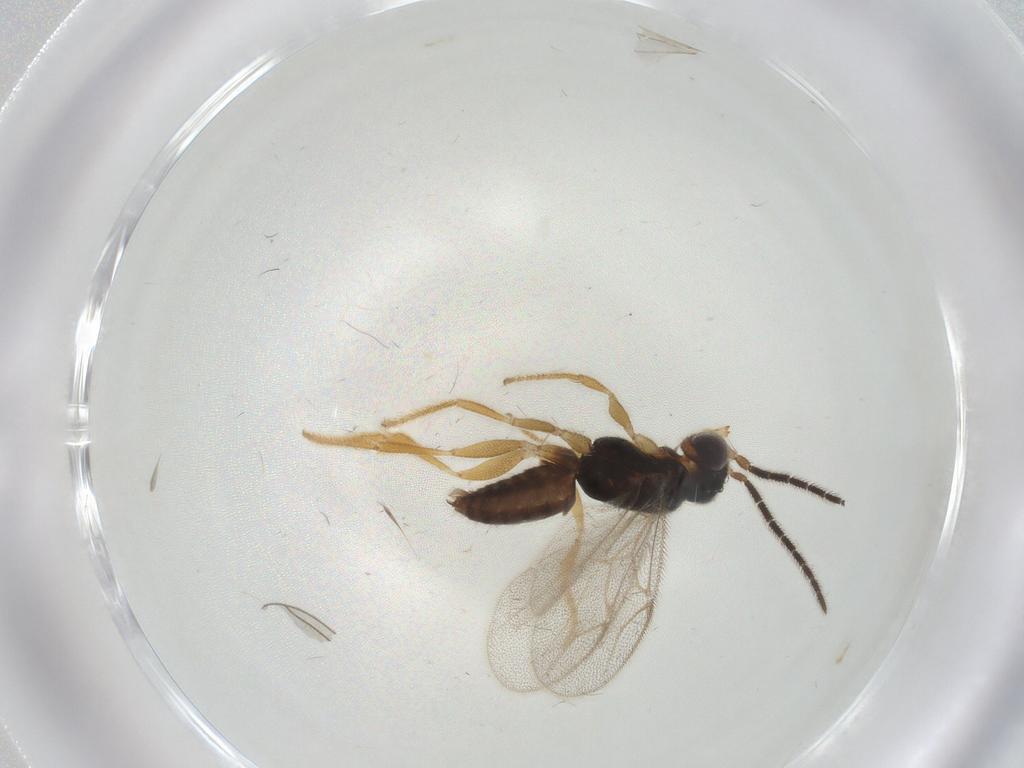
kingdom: Animalia
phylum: Arthropoda
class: Insecta
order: Hymenoptera
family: Dryinidae
